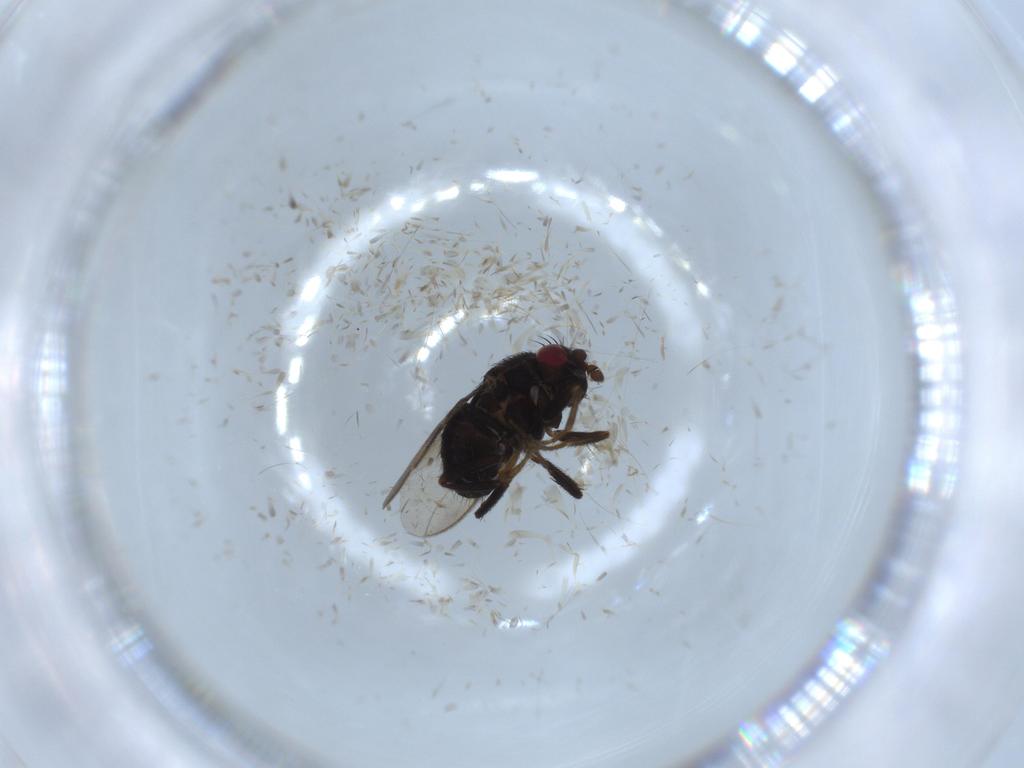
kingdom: Animalia
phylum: Arthropoda
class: Insecta
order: Diptera
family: Sphaeroceridae
